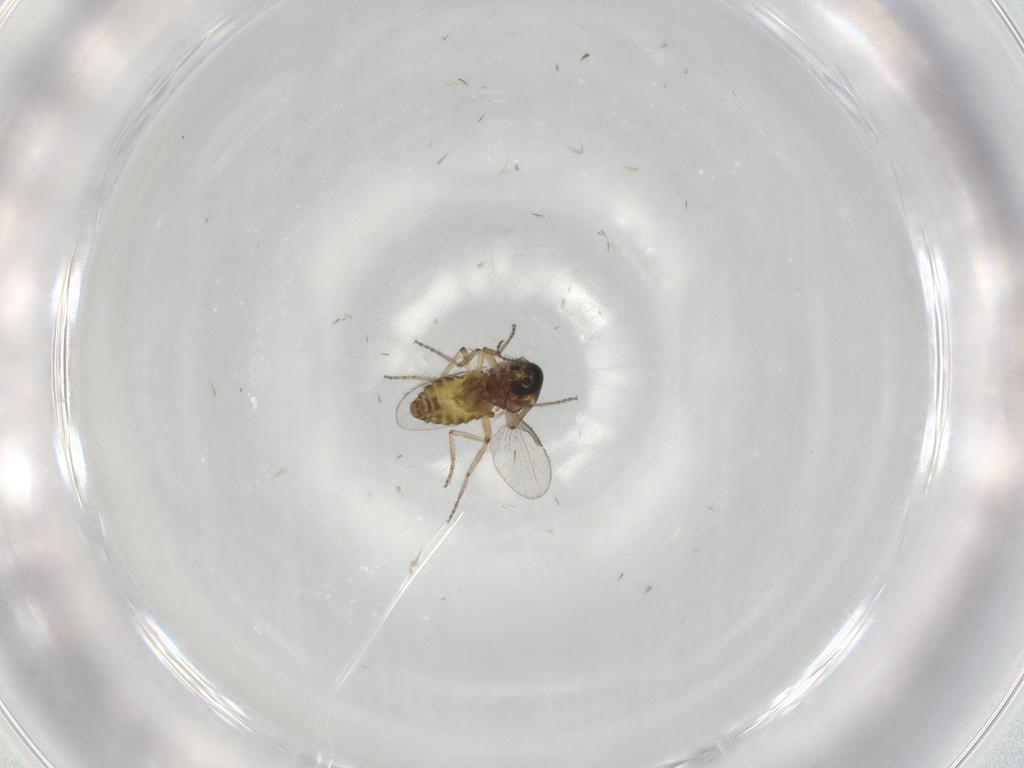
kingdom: Animalia
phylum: Arthropoda
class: Insecta
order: Diptera
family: Ceratopogonidae
